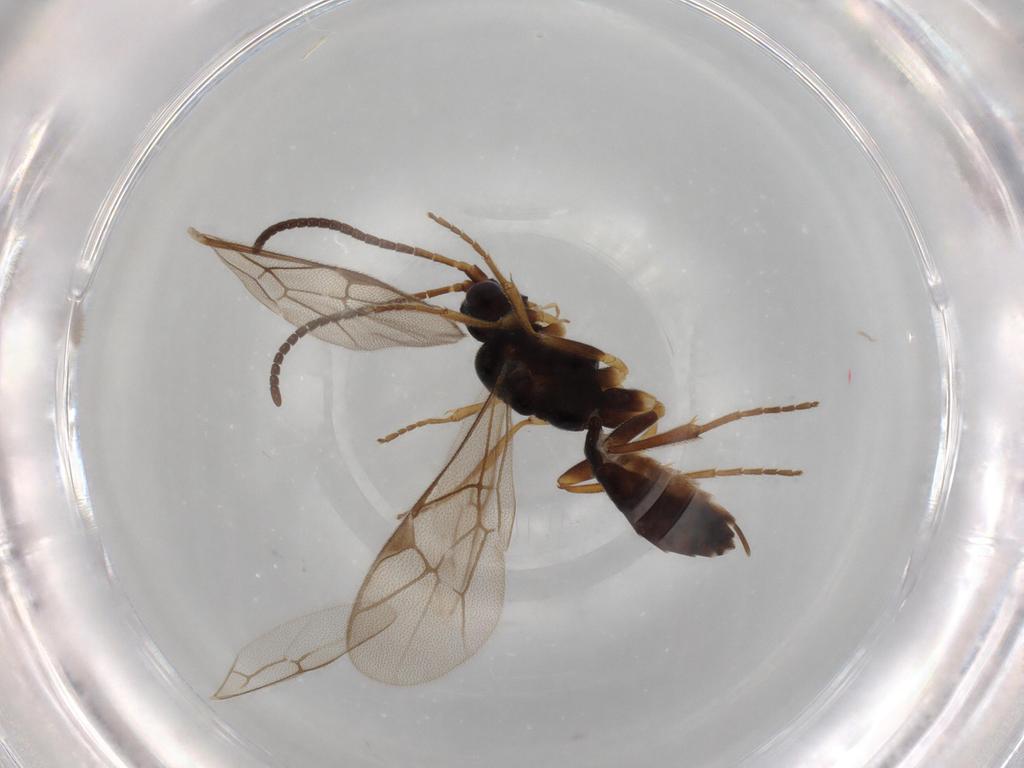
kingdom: Animalia
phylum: Arthropoda
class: Insecta
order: Hymenoptera
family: Ichneumonidae
